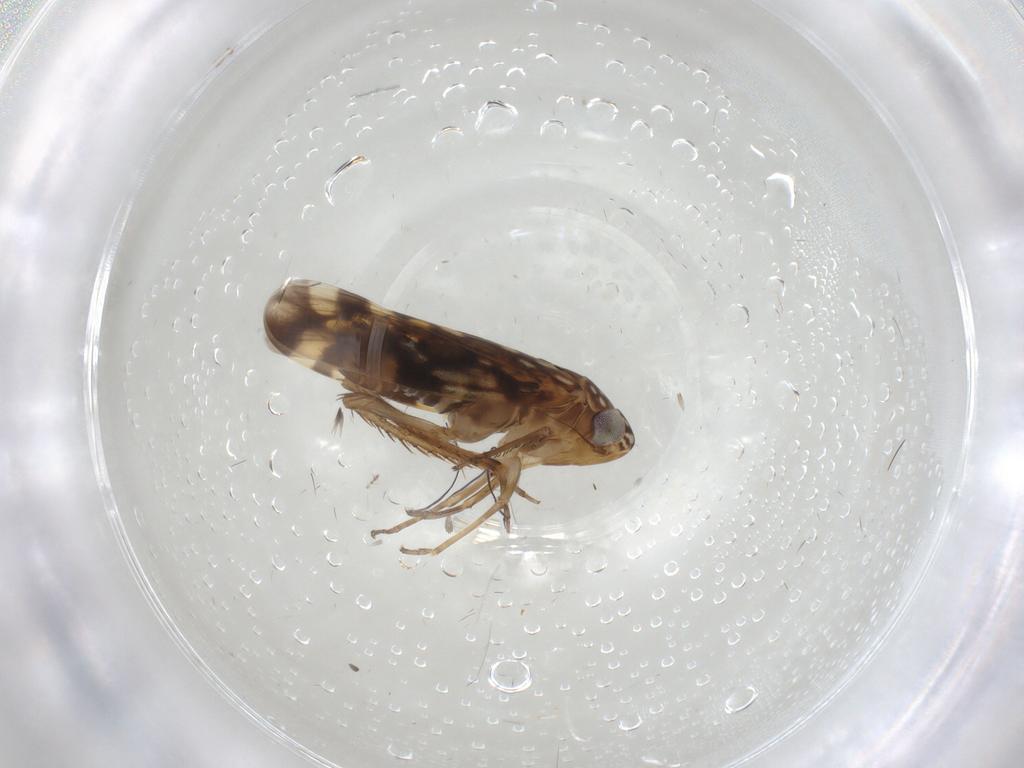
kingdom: Animalia
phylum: Arthropoda
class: Insecta
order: Hemiptera
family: Cicadellidae
